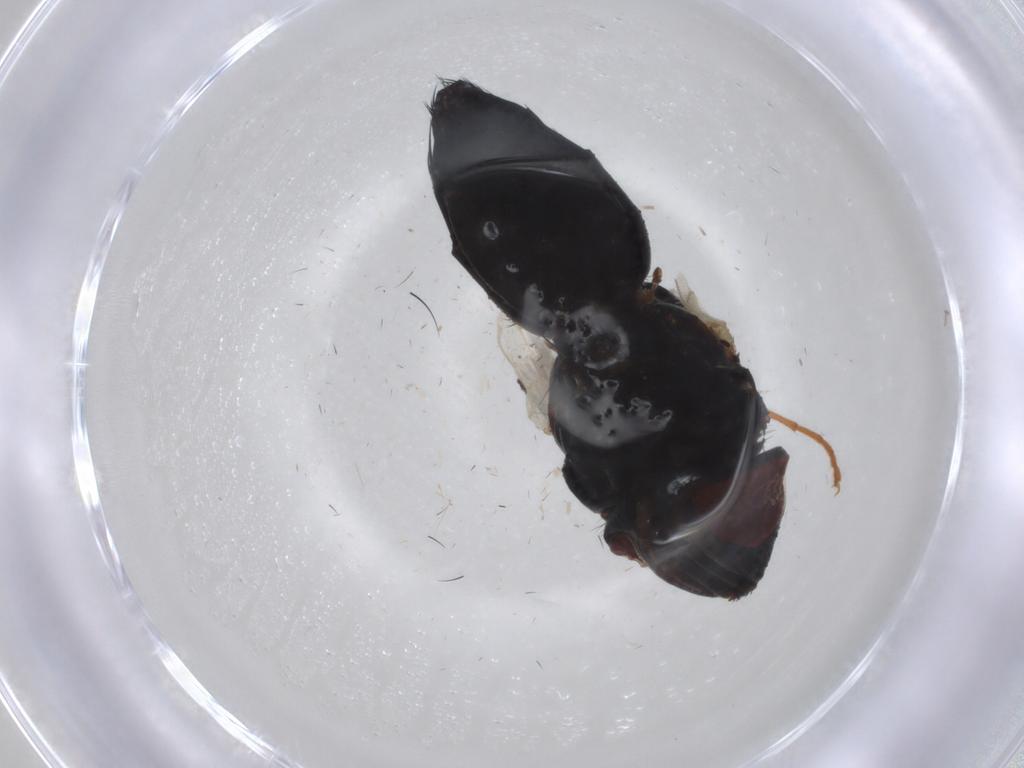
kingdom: Animalia
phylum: Arthropoda
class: Insecta
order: Diptera
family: Sarcophagidae
